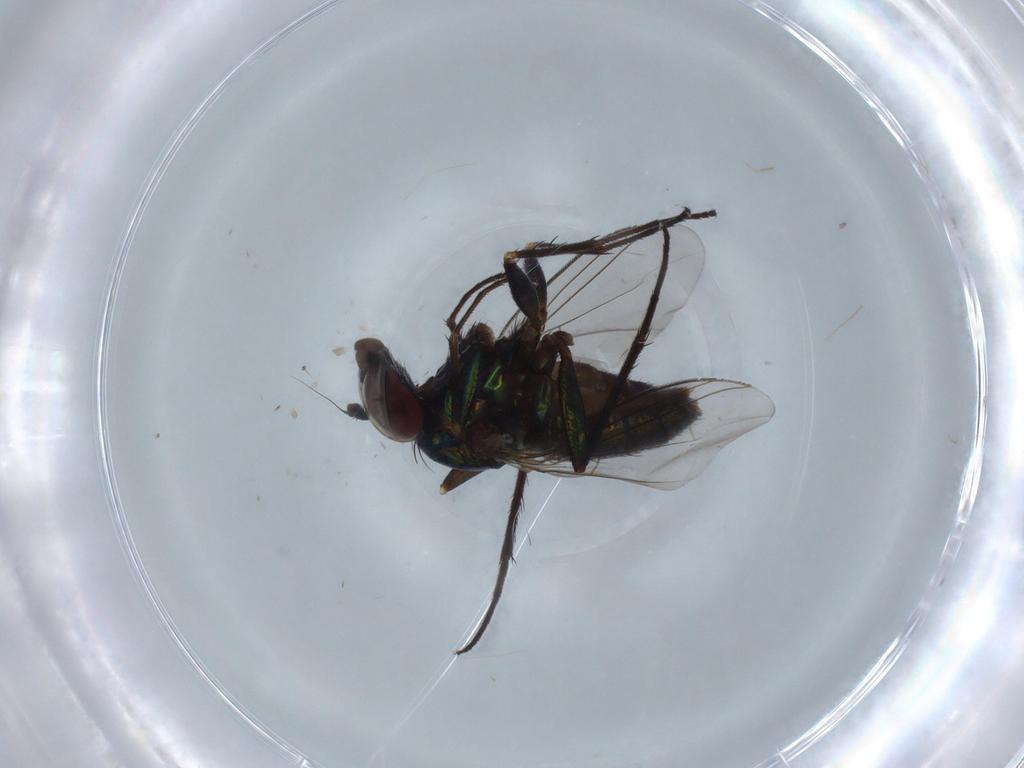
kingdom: Animalia
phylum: Arthropoda
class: Insecta
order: Diptera
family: Dolichopodidae
